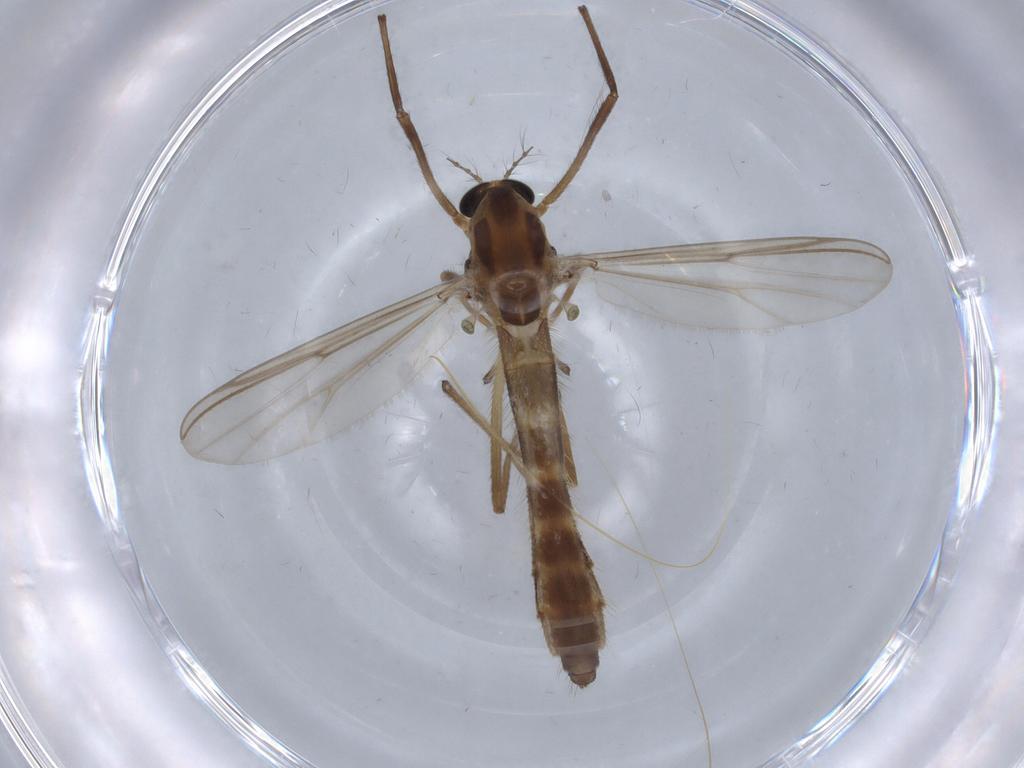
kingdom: Animalia
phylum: Arthropoda
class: Insecta
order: Diptera
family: Chironomidae
